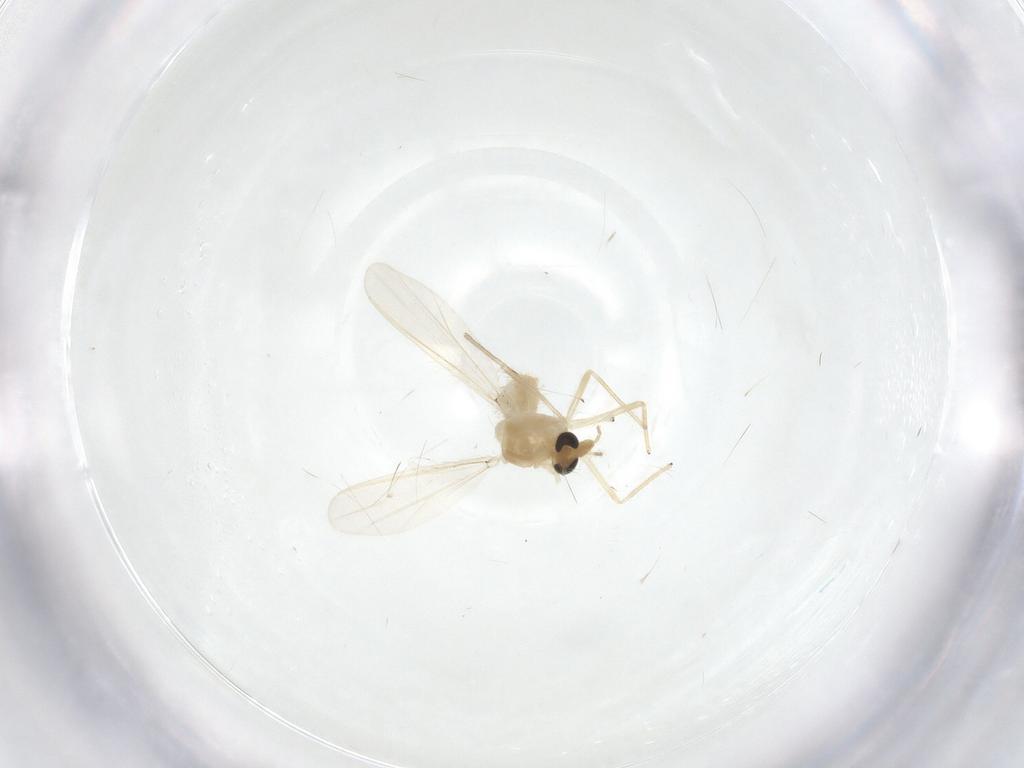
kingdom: Animalia
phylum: Arthropoda
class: Insecta
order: Diptera
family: Chironomidae
